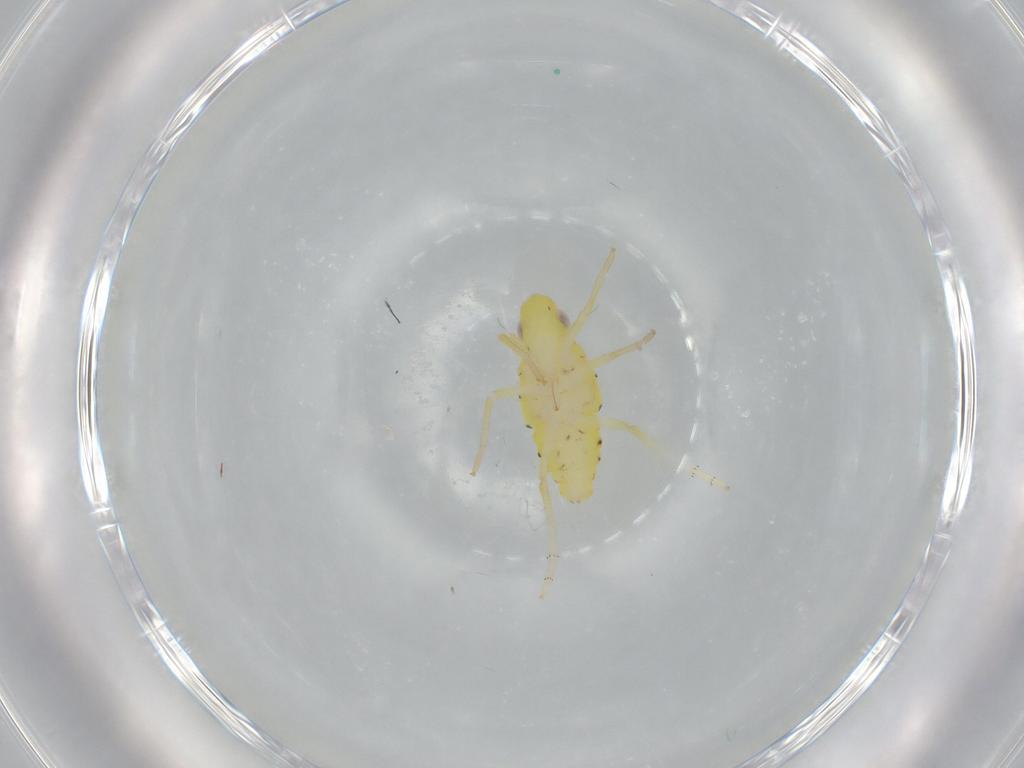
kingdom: Animalia
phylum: Arthropoda
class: Insecta
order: Hemiptera
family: Tropiduchidae
